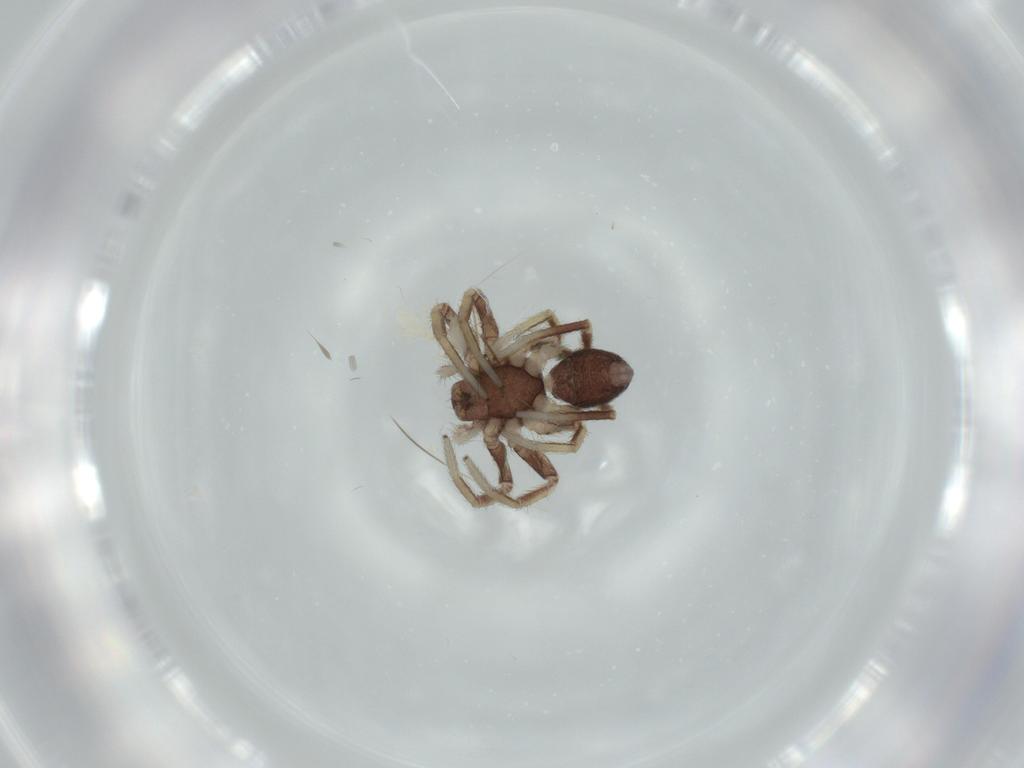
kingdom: Animalia
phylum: Arthropoda
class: Arachnida
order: Araneae
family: Corinnidae
